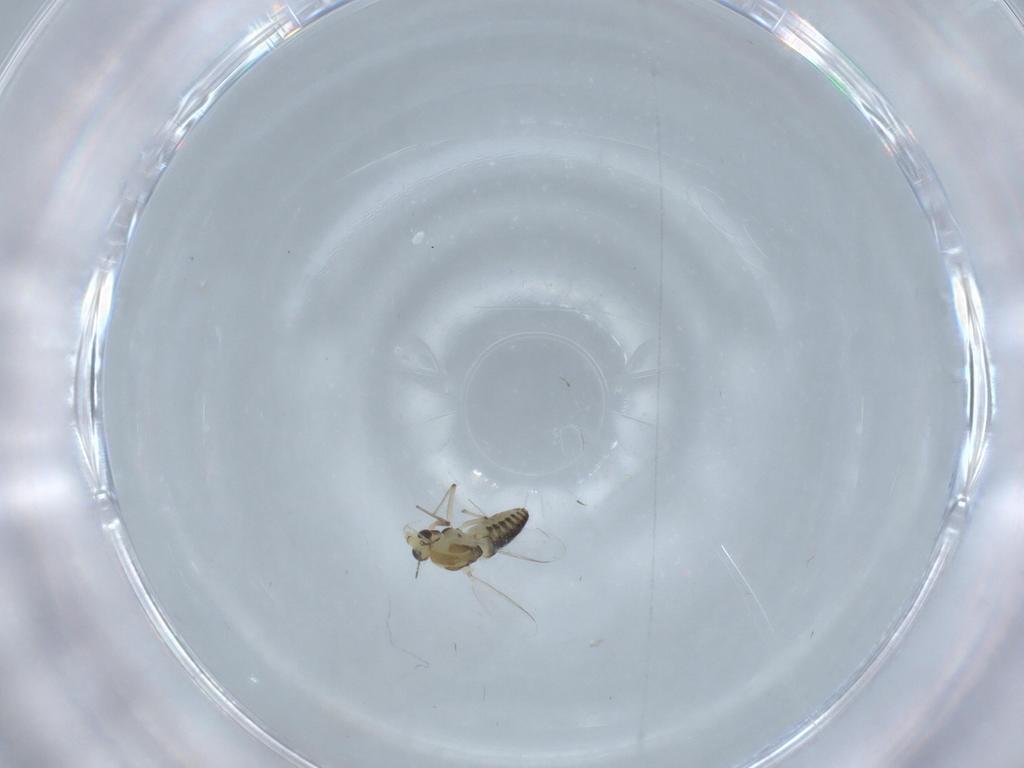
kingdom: Animalia
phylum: Arthropoda
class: Insecta
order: Diptera
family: Chironomidae
